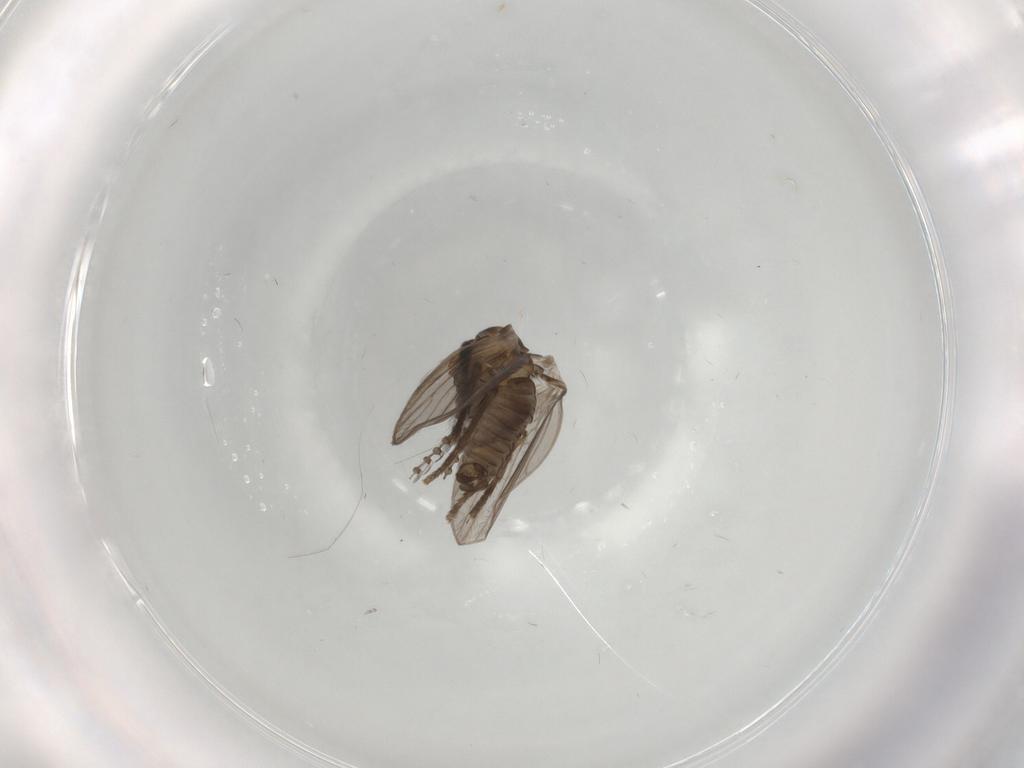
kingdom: Animalia
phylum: Arthropoda
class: Insecta
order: Diptera
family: Psychodidae
